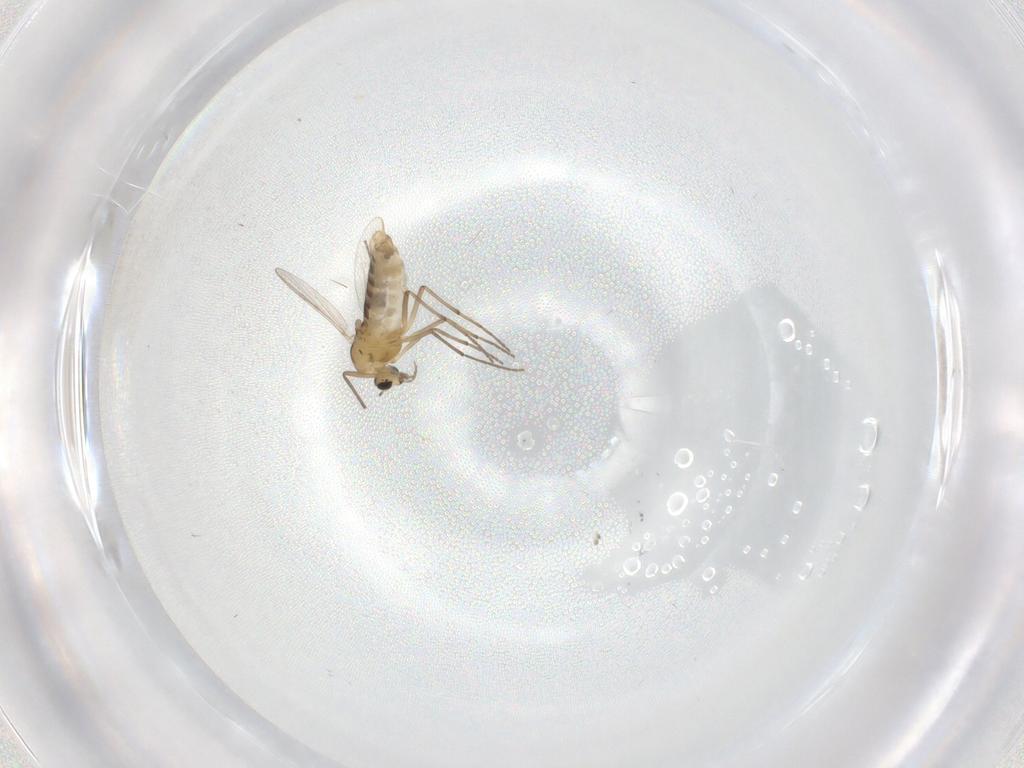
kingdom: Animalia
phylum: Arthropoda
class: Insecta
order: Diptera
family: Chironomidae
